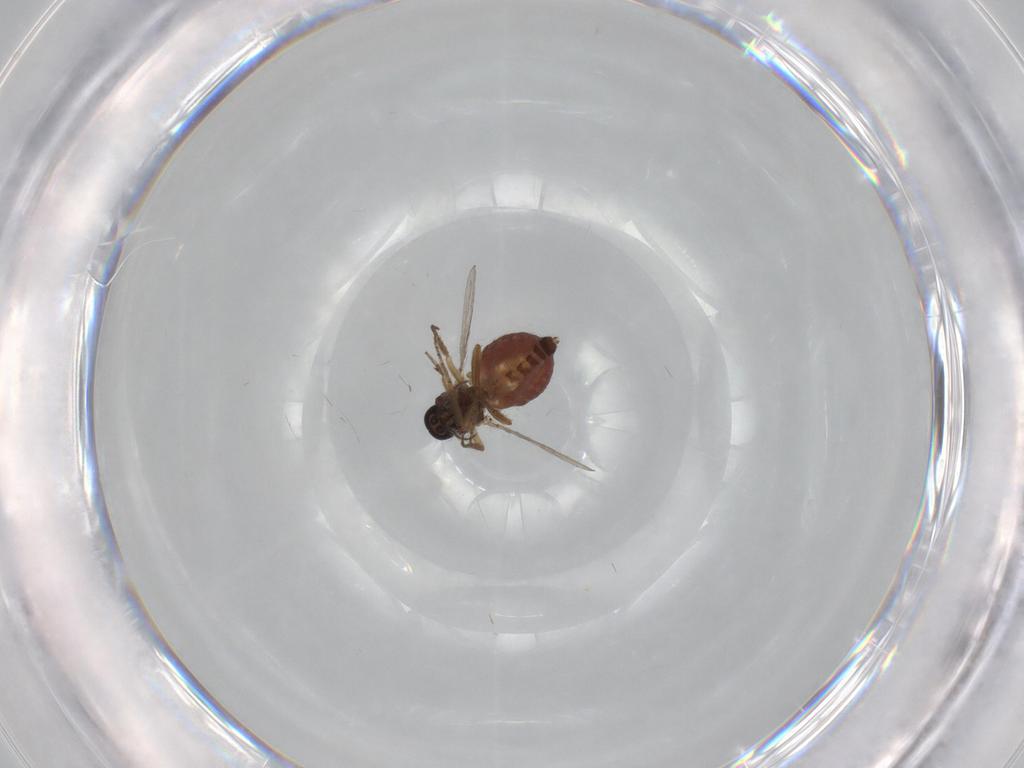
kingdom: Animalia
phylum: Arthropoda
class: Insecta
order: Diptera
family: Ceratopogonidae
